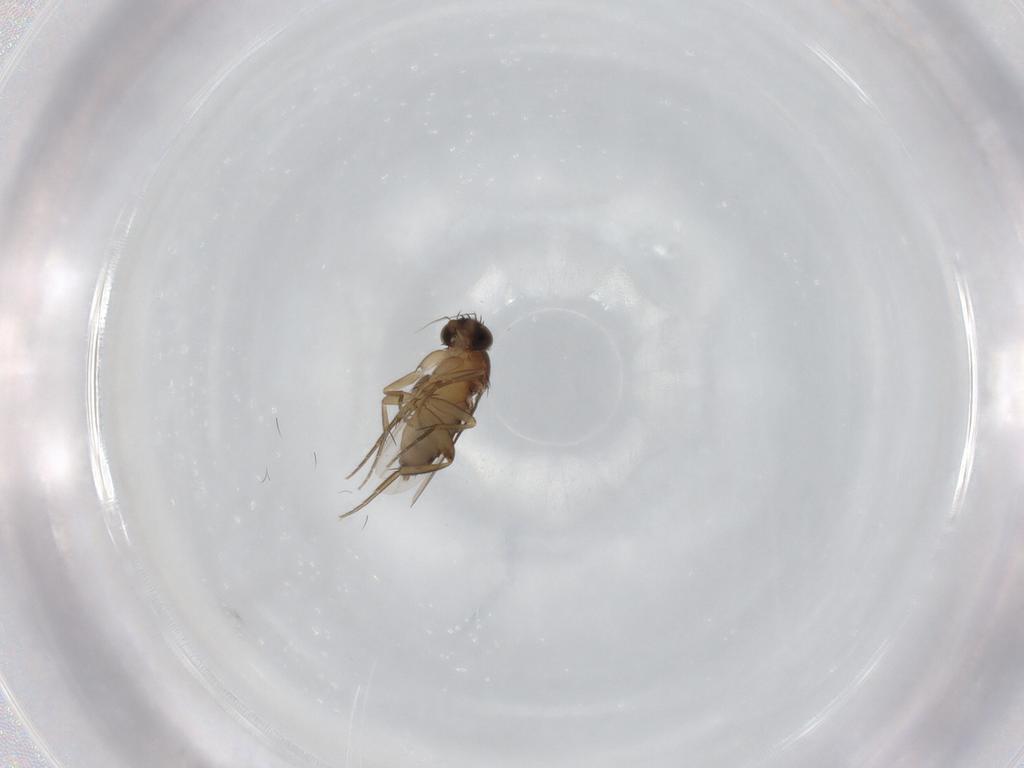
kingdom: Animalia
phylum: Arthropoda
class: Insecta
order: Diptera
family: Phoridae
